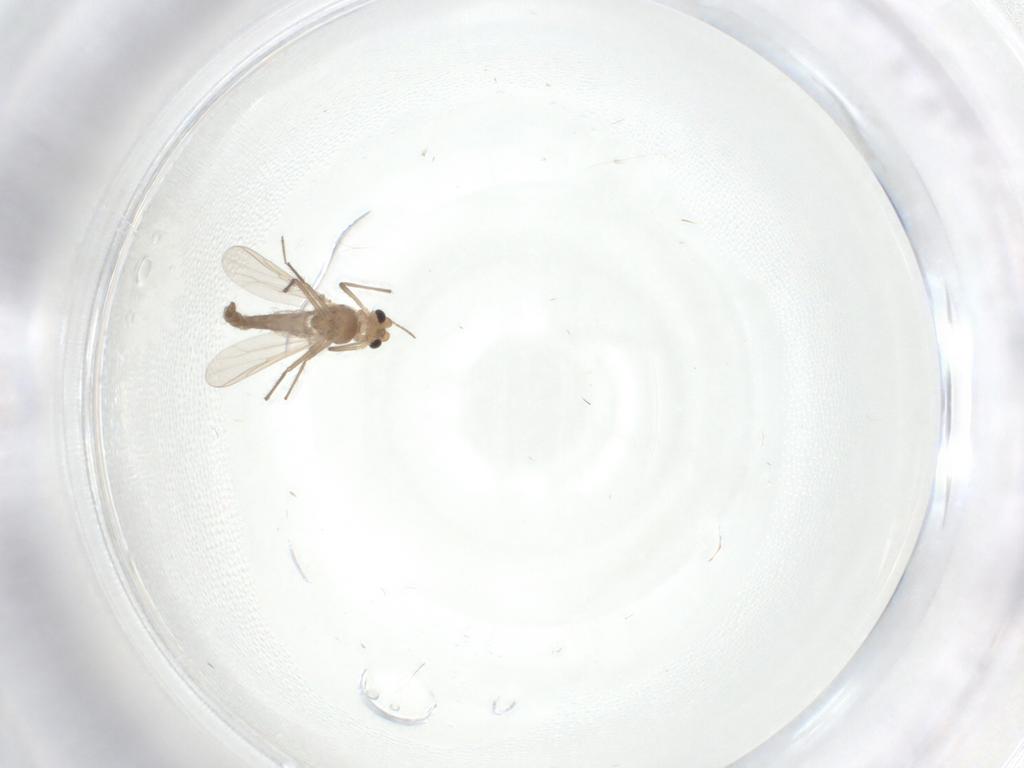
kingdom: Animalia
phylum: Arthropoda
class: Insecta
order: Diptera
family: Chironomidae
